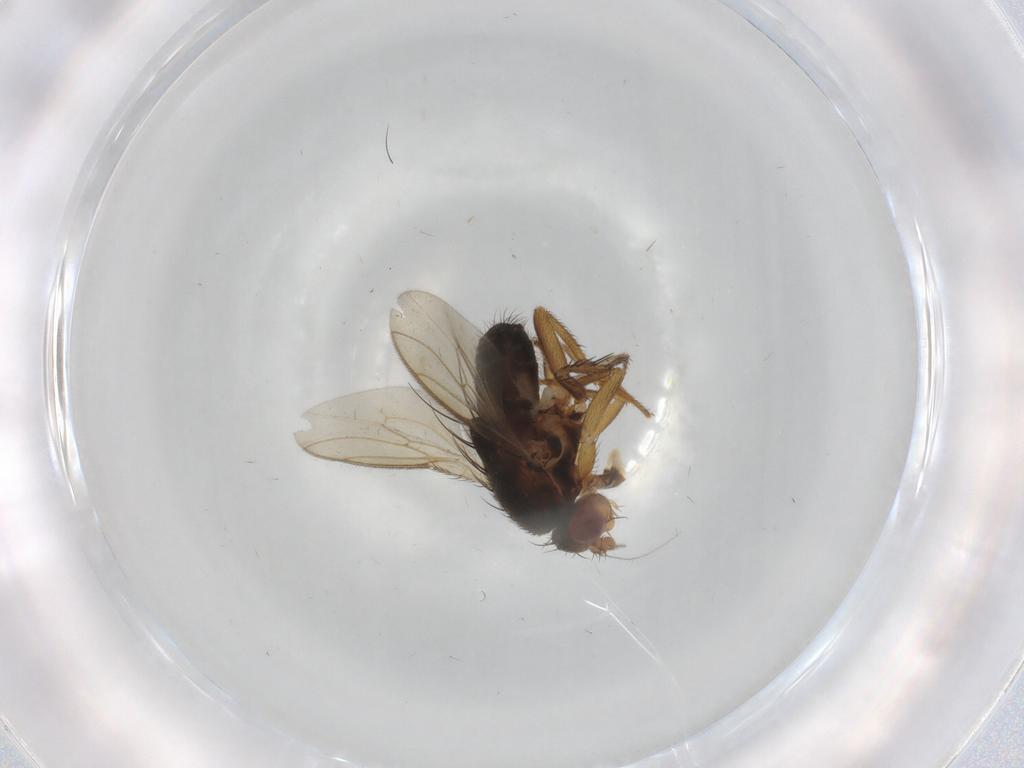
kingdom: Animalia
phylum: Arthropoda
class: Insecta
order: Diptera
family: Sphaeroceridae
